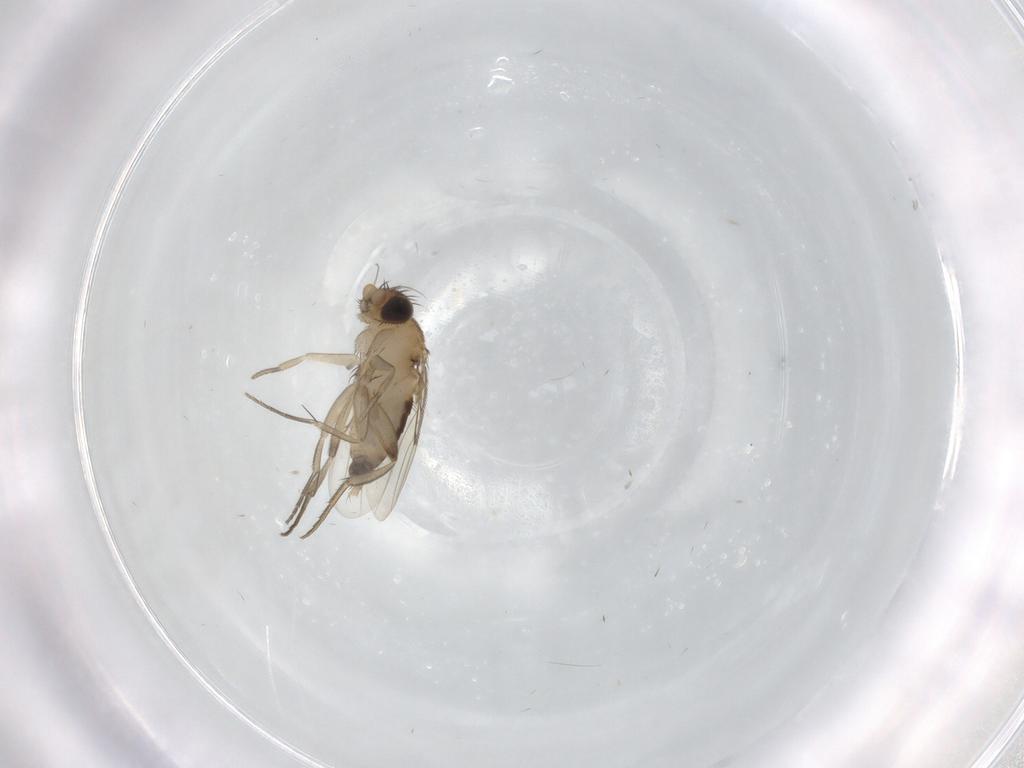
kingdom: Animalia
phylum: Arthropoda
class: Insecta
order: Diptera
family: Phoridae
